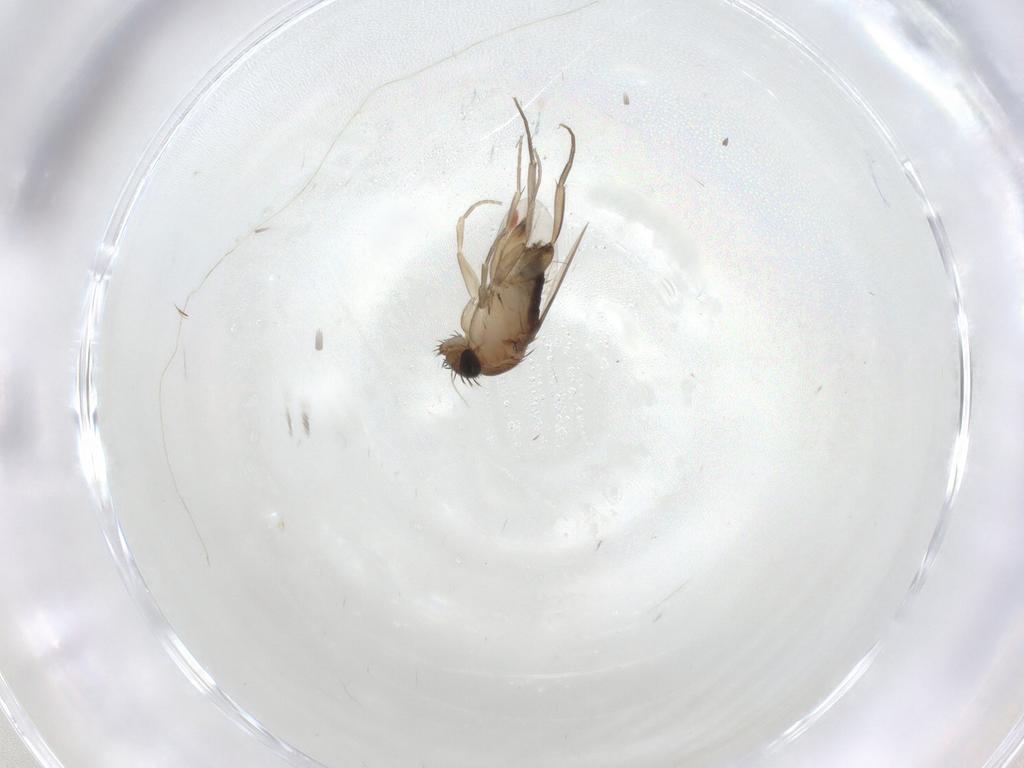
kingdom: Animalia
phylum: Arthropoda
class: Insecta
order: Diptera
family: Phoridae
